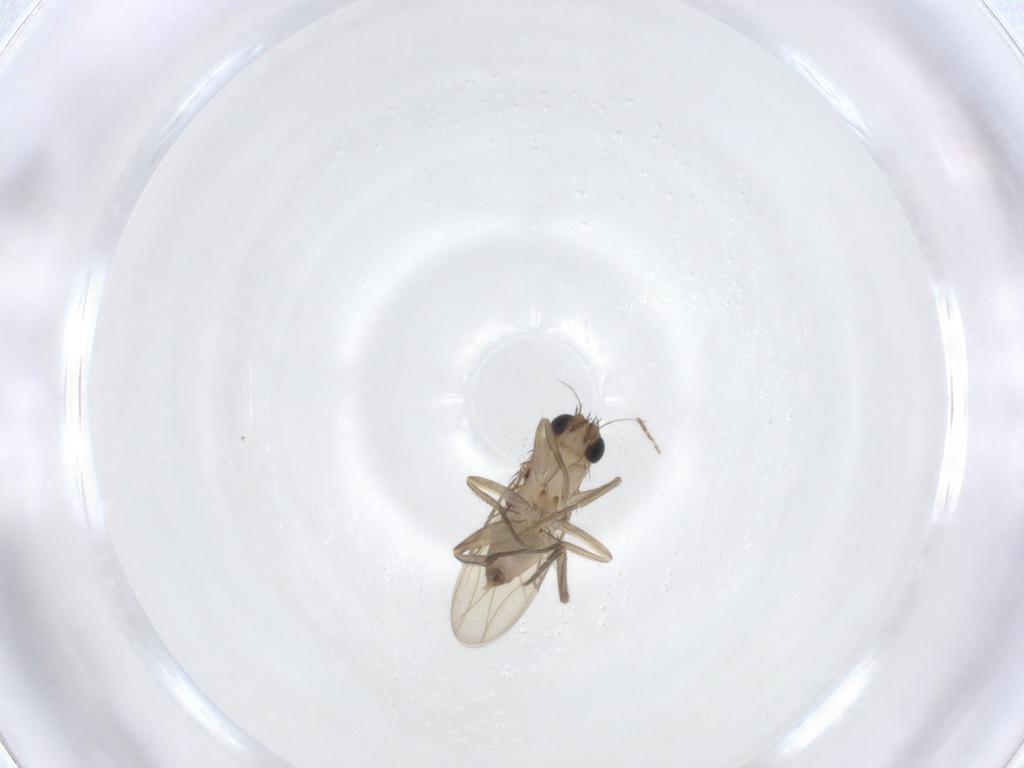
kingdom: Animalia
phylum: Arthropoda
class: Insecta
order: Diptera
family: Phoridae
